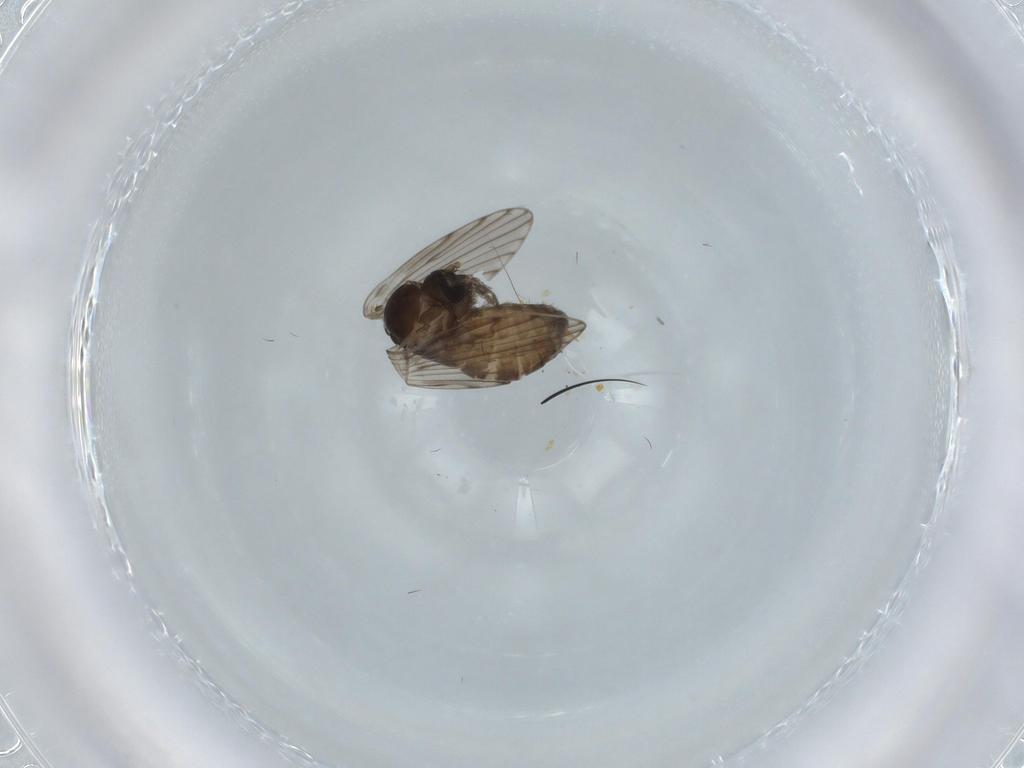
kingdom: Animalia
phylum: Arthropoda
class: Insecta
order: Diptera
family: Psychodidae
